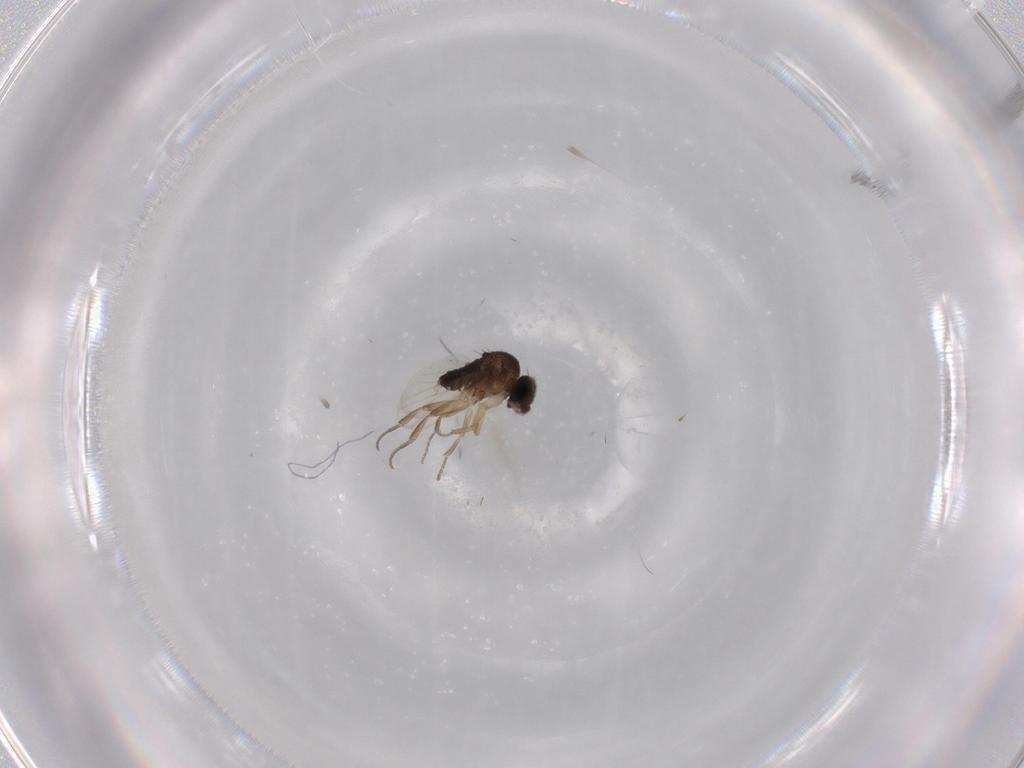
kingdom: Animalia
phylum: Arthropoda
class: Insecta
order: Diptera
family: Phoridae
